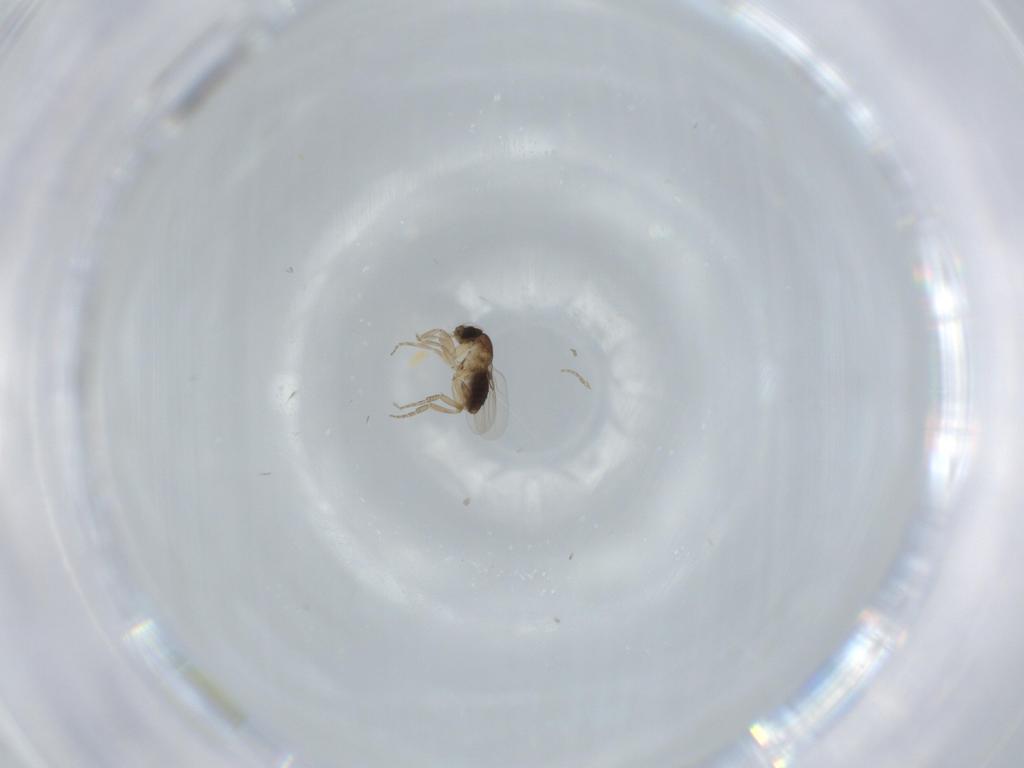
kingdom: Animalia
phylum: Arthropoda
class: Insecta
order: Diptera
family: Phoridae
